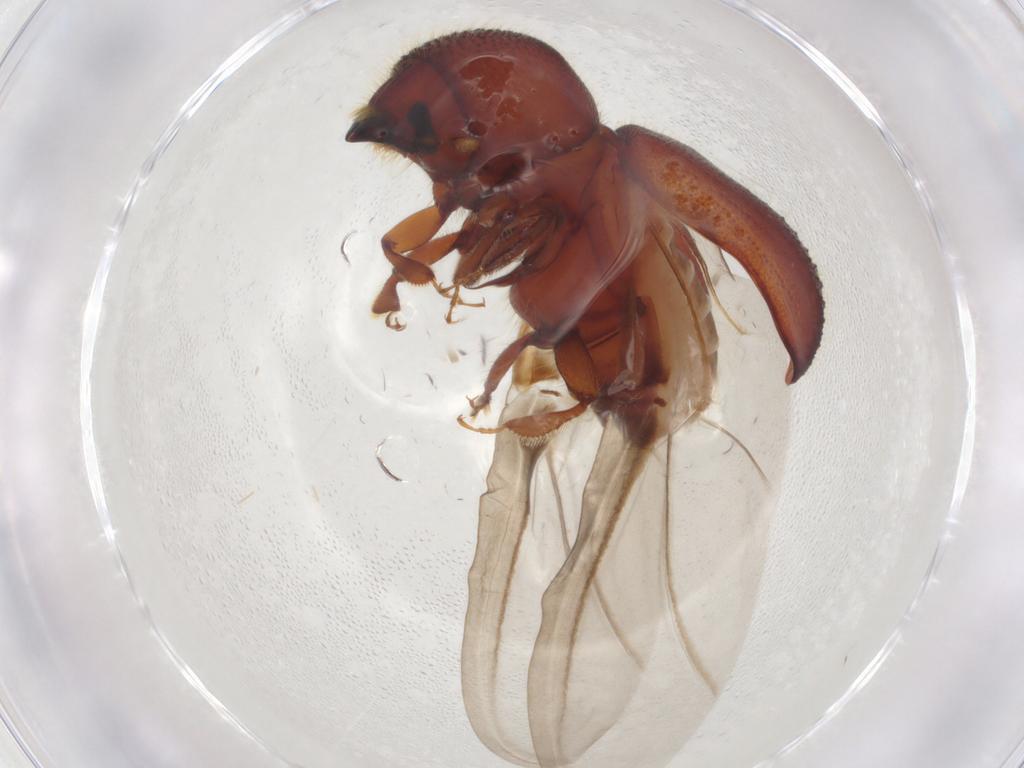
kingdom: Animalia
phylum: Arthropoda
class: Insecta
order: Coleoptera
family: Curculionidae
